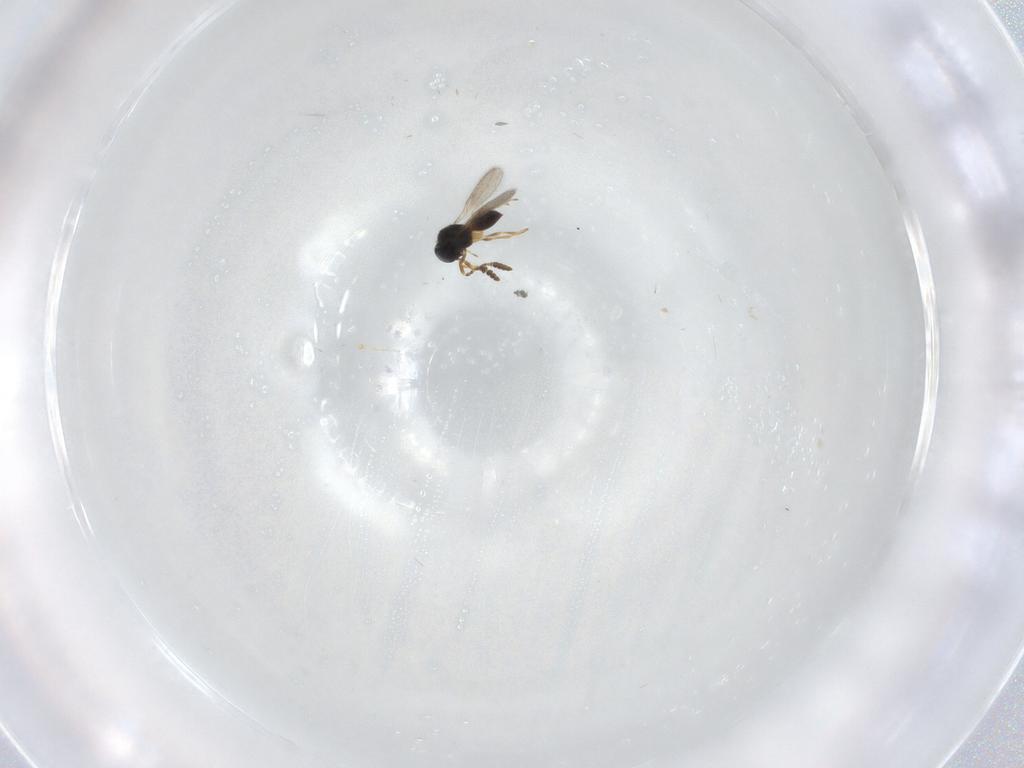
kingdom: Animalia
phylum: Arthropoda
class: Insecta
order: Hymenoptera
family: Scelionidae
